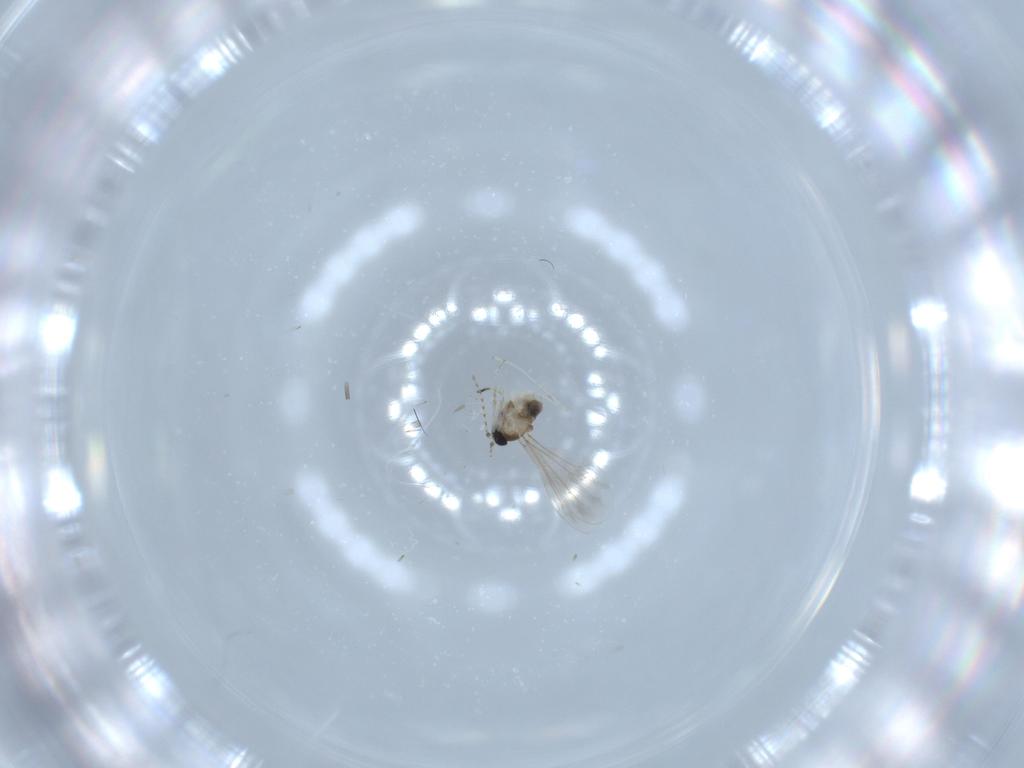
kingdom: Animalia
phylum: Arthropoda
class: Insecta
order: Diptera
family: Cecidomyiidae
